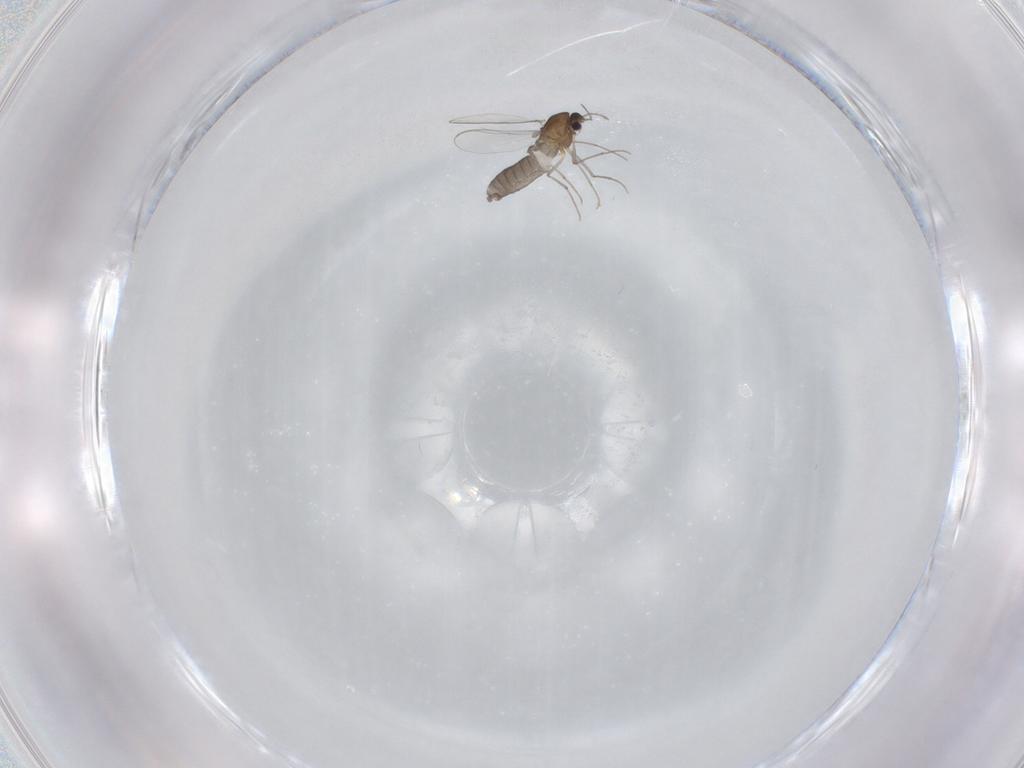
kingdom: Animalia
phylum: Arthropoda
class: Insecta
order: Diptera
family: Chironomidae
